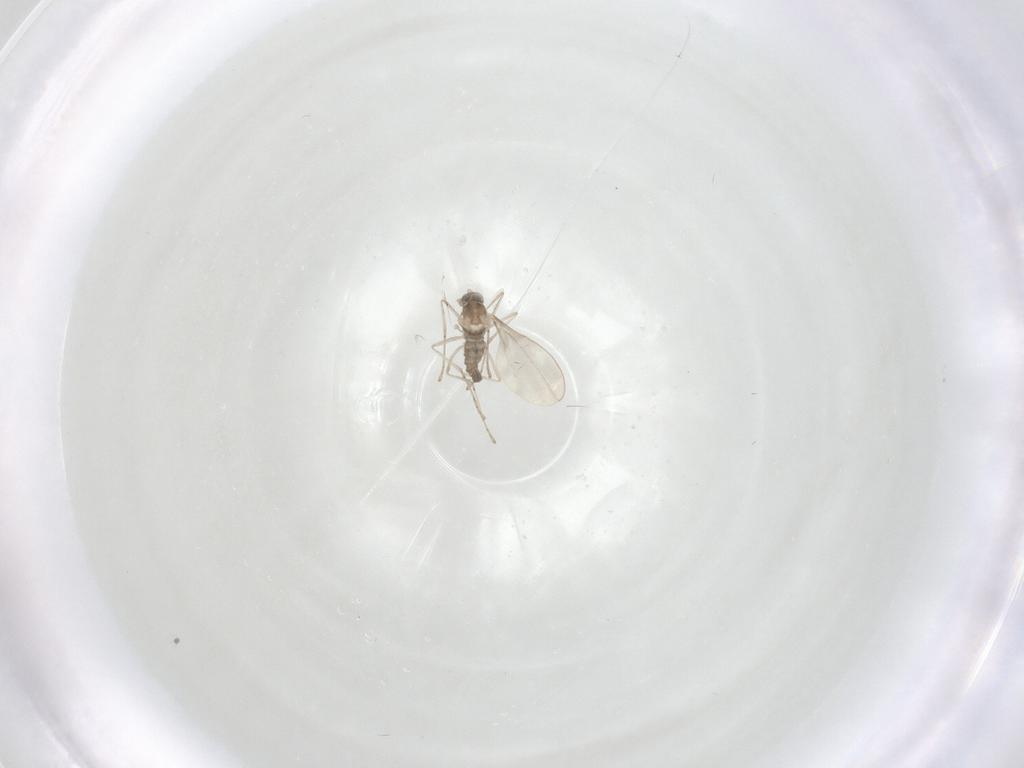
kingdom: Animalia
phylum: Arthropoda
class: Insecta
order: Diptera
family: Cecidomyiidae
